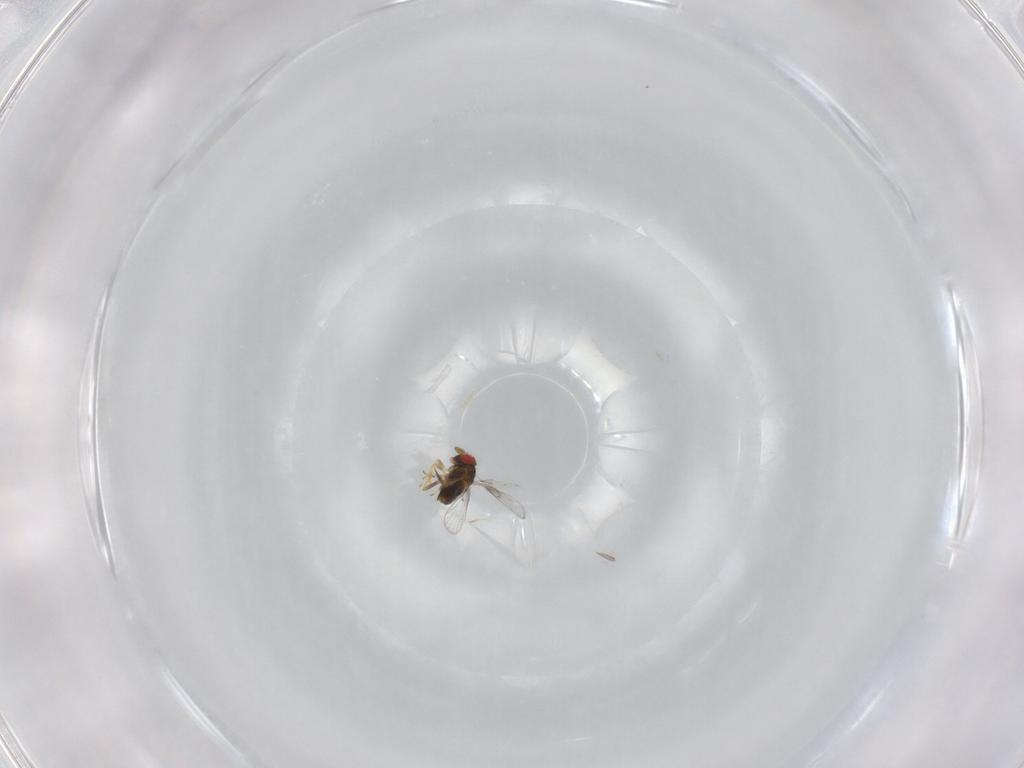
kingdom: Animalia
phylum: Arthropoda
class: Insecta
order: Hymenoptera
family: Trichogrammatidae
